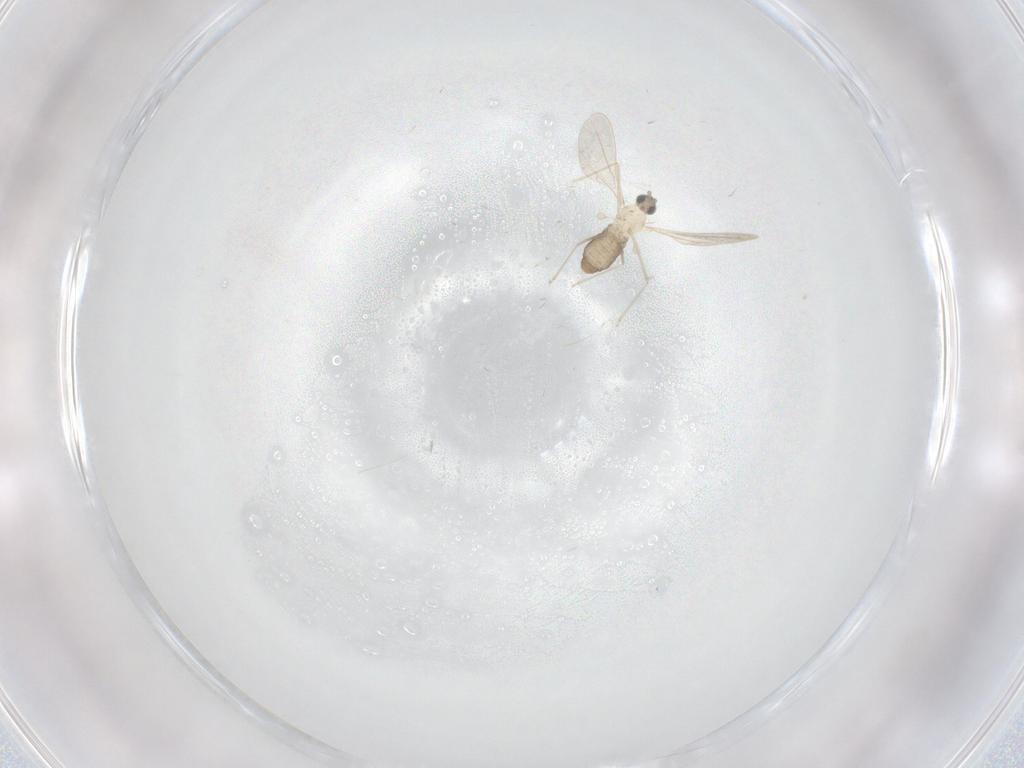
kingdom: Animalia
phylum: Arthropoda
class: Insecta
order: Diptera
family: Cecidomyiidae
